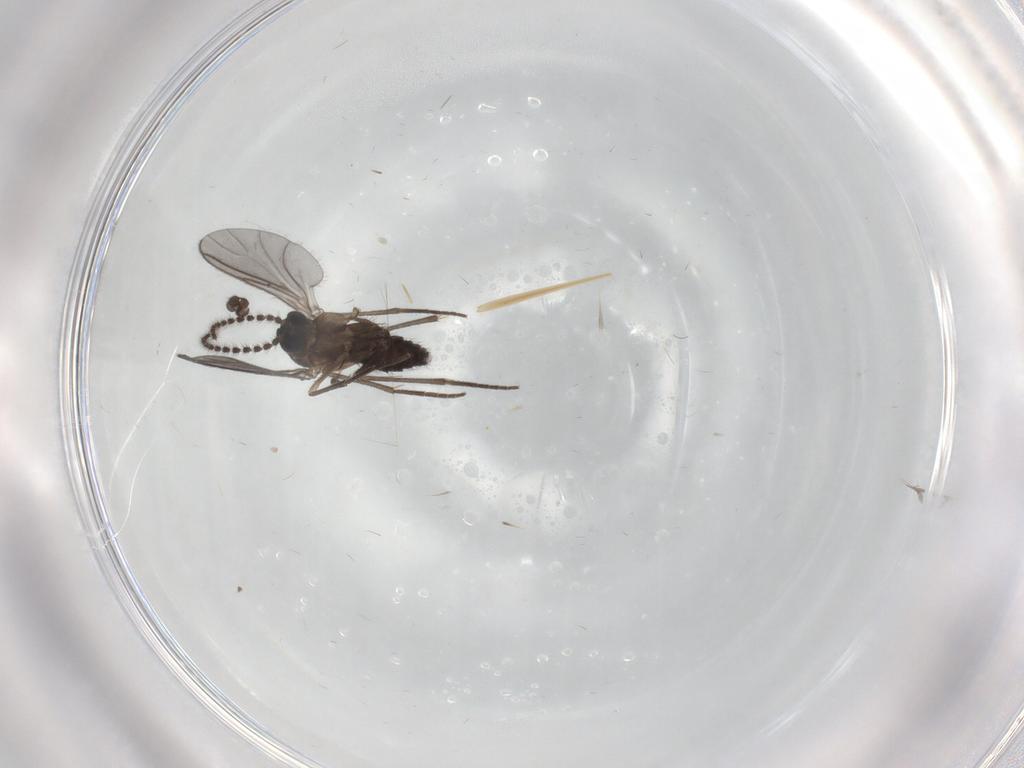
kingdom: Animalia
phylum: Arthropoda
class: Insecta
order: Diptera
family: Sciaridae
